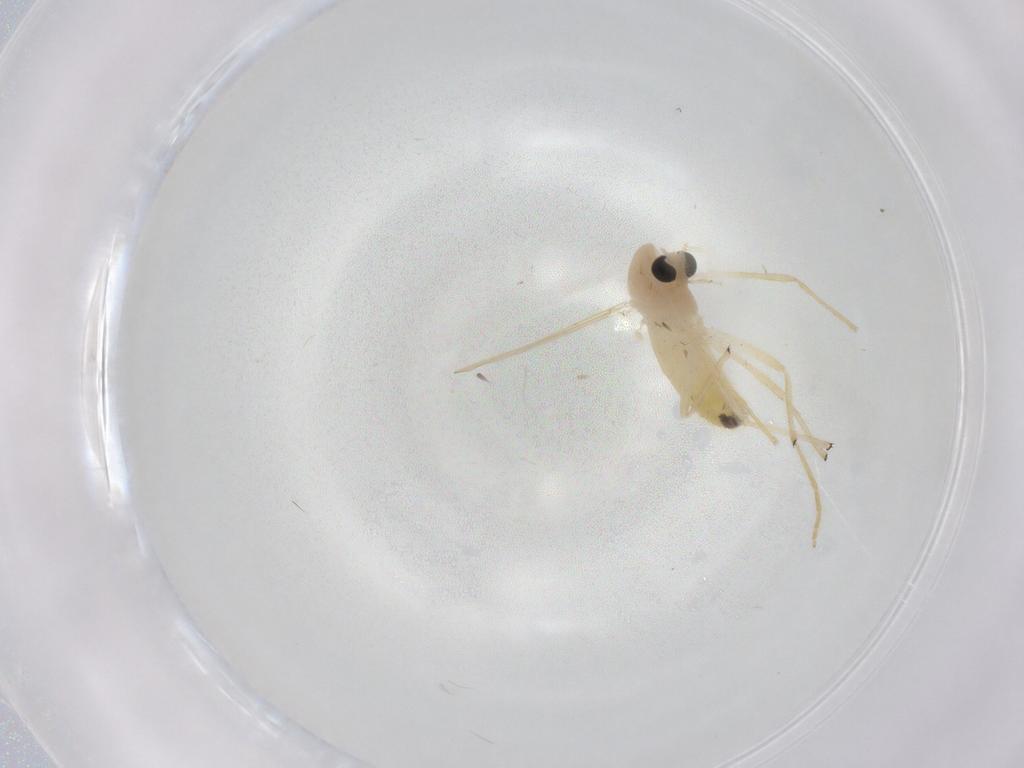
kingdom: Animalia
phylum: Arthropoda
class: Insecta
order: Diptera
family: Chironomidae
